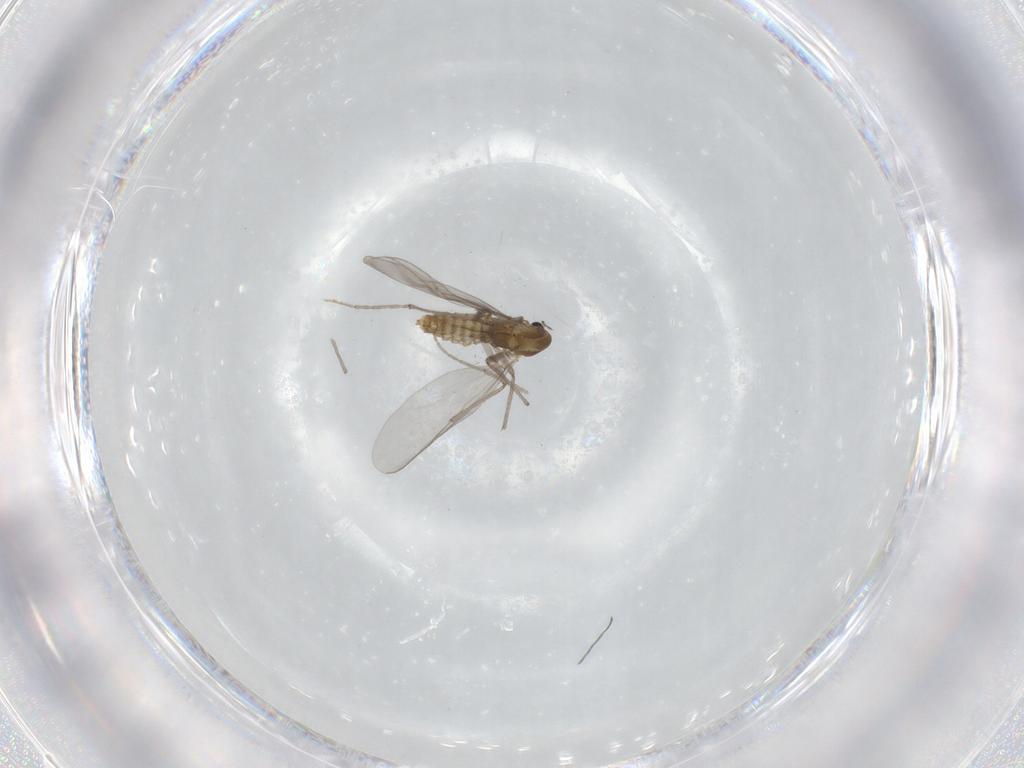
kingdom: Animalia
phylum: Arthropoda
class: Insecta
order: Diptera
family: Chironomidae
